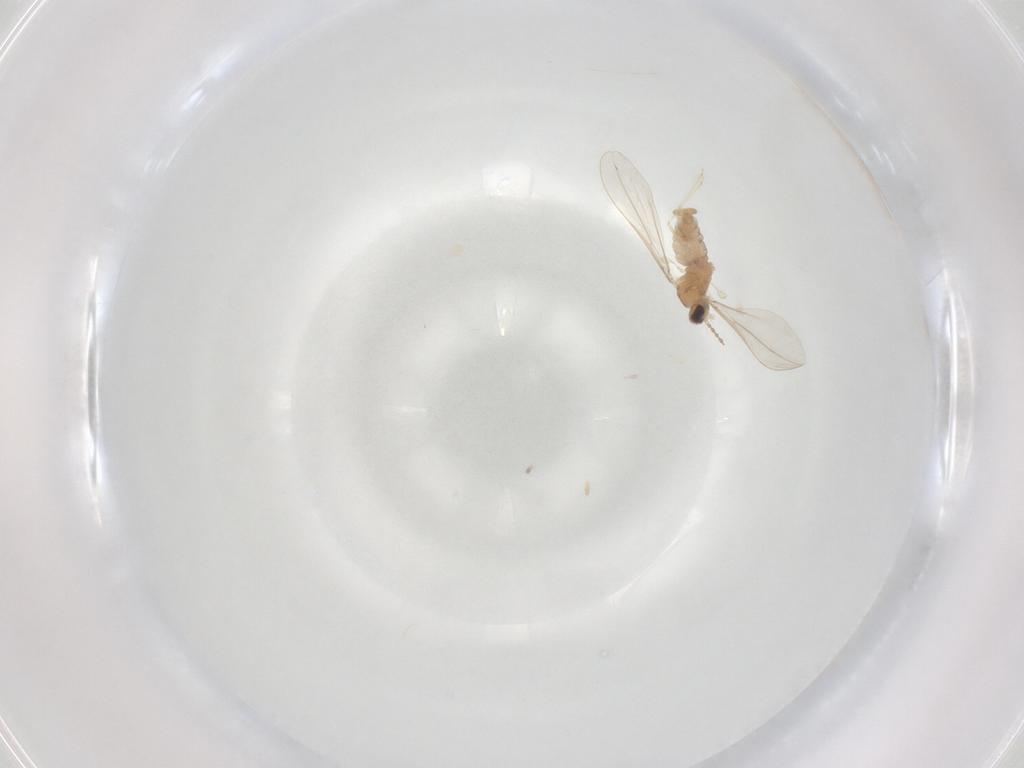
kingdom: Animalia
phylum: Arthropoda
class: Insecta
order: Diptera
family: Cecidomyiidae
